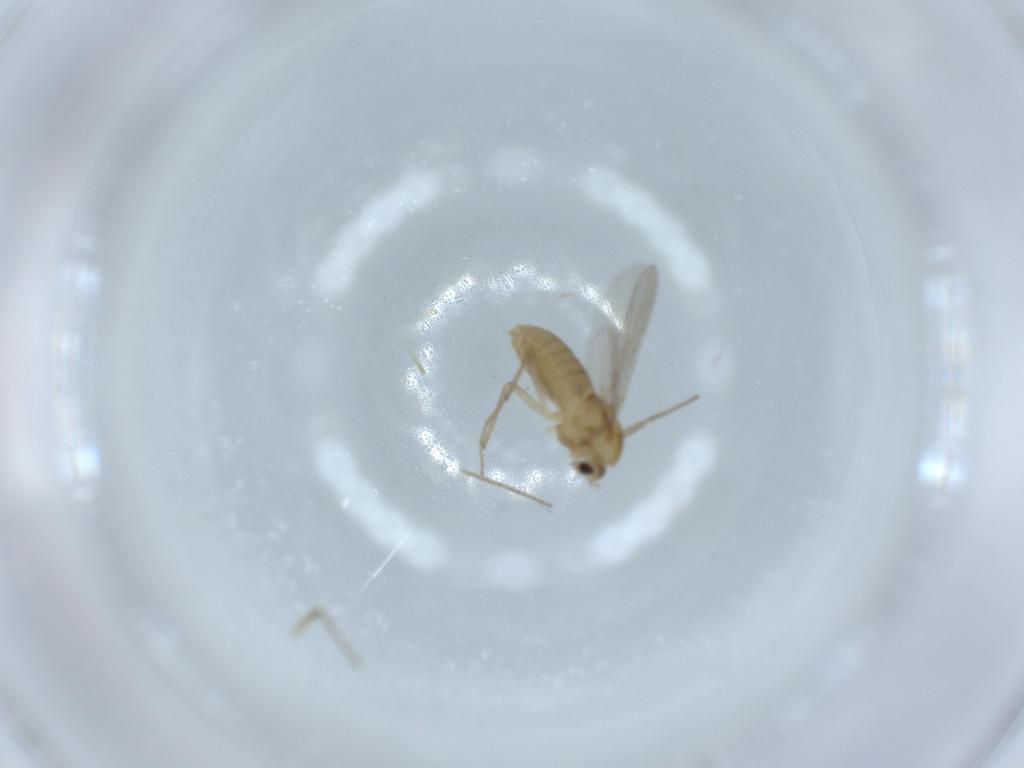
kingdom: Animalia
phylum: Arthropoda
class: Insecta
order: Diptera
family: Chironomidae
